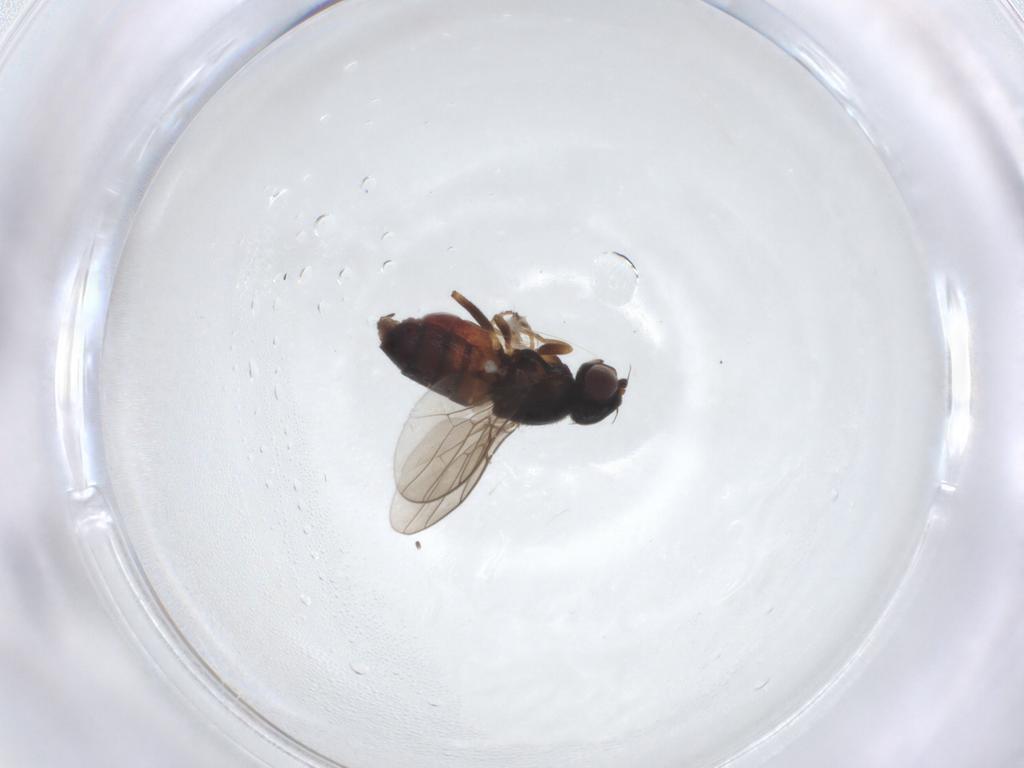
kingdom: Animalia
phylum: Arthropoda
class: Insecta
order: Diptera
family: Chloropidae
